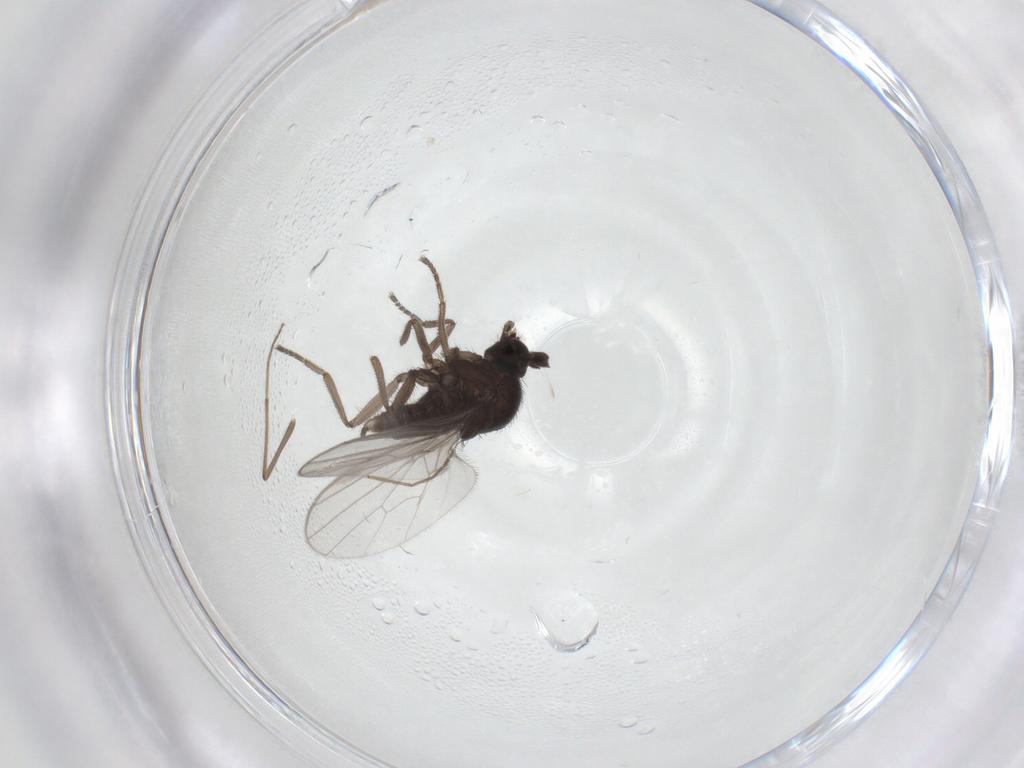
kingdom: Animalia
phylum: Arthropoda
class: Insecta
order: Diptera
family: Hybotidae
